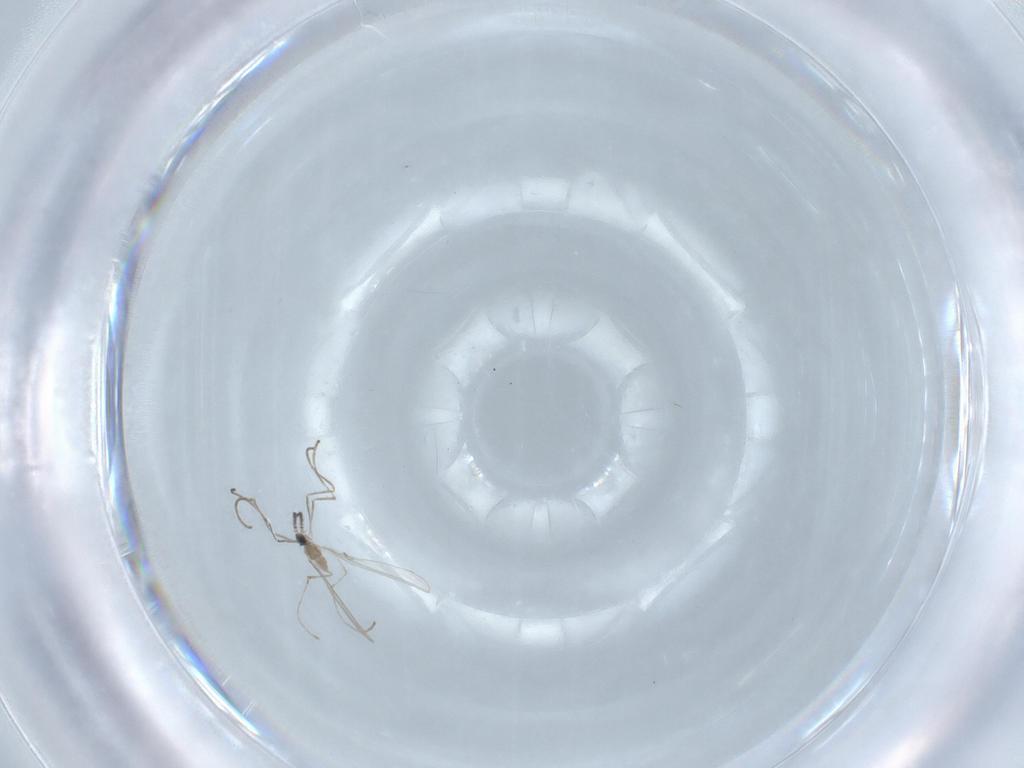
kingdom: Animalia
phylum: Arthropoda
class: Insecta
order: Diptera
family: Cecidomyiidae
